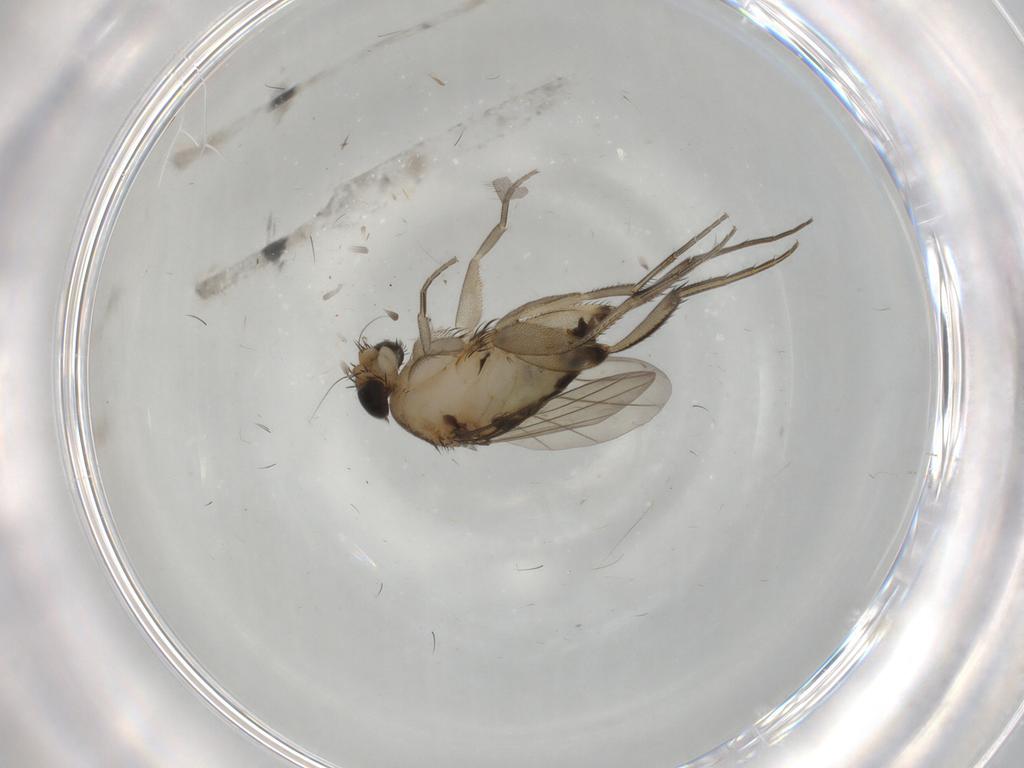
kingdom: Animalia
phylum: Arthropoda
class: Insecta
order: Diptera
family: Phoridae
